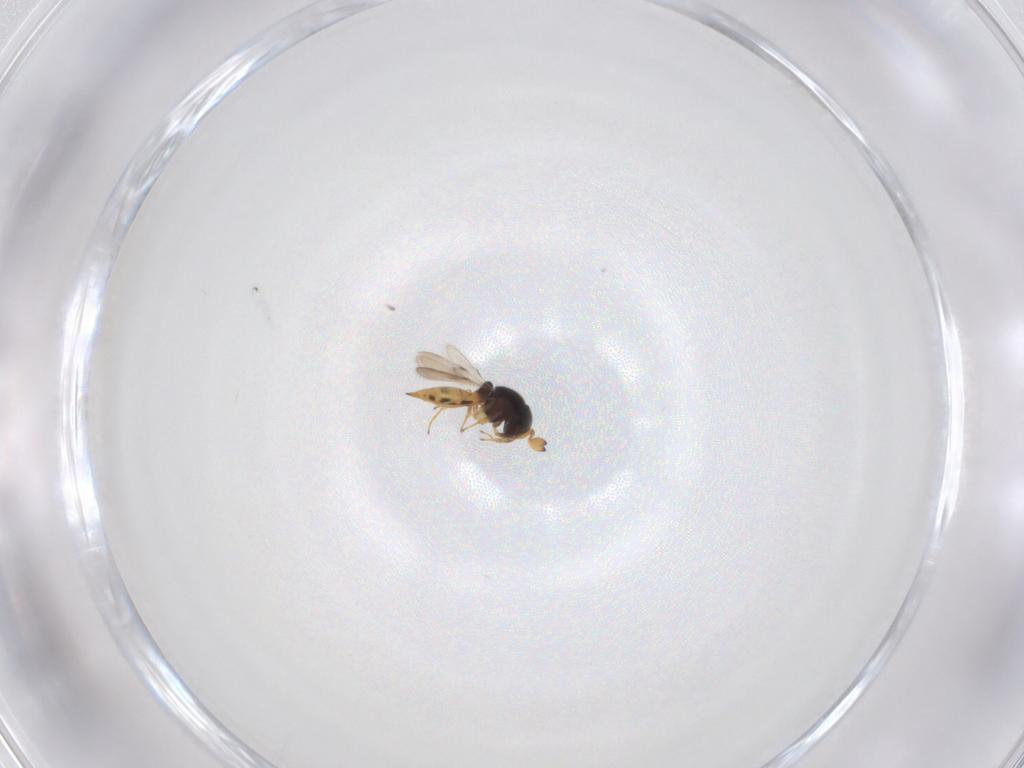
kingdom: Animalia
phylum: Arthropoda
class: Insecta
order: Hymenoptera
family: Scelionidae
